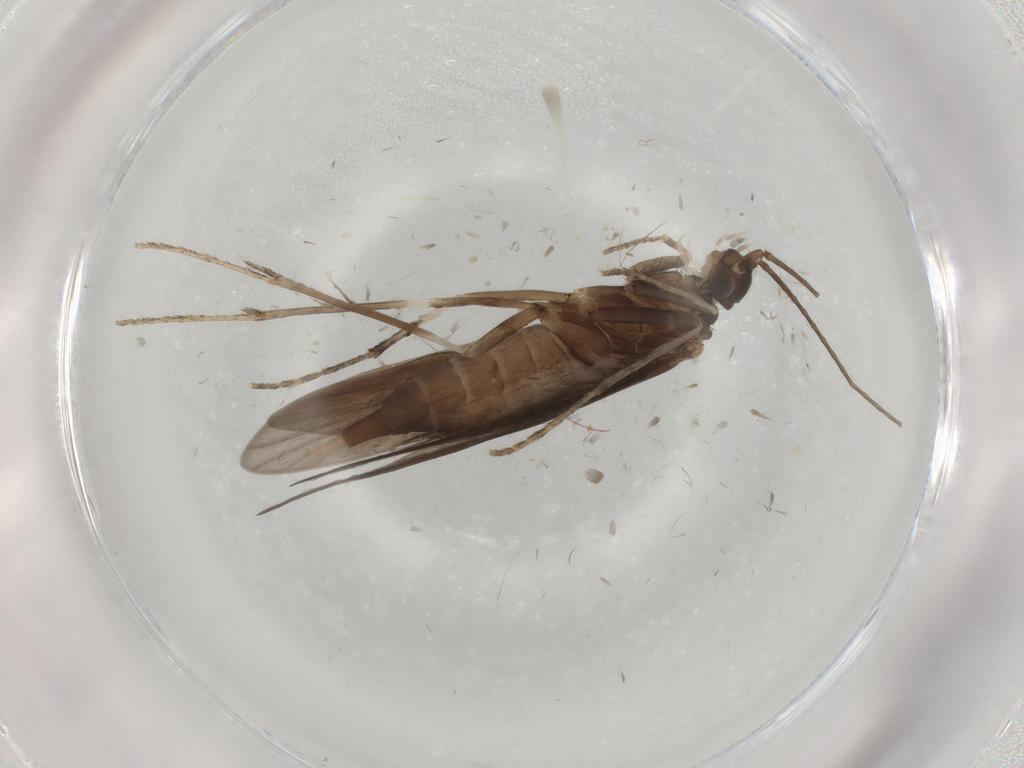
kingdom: Animalia
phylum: Arthropoda
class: Insecta
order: Trichoptera
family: Xiphocentronidae
